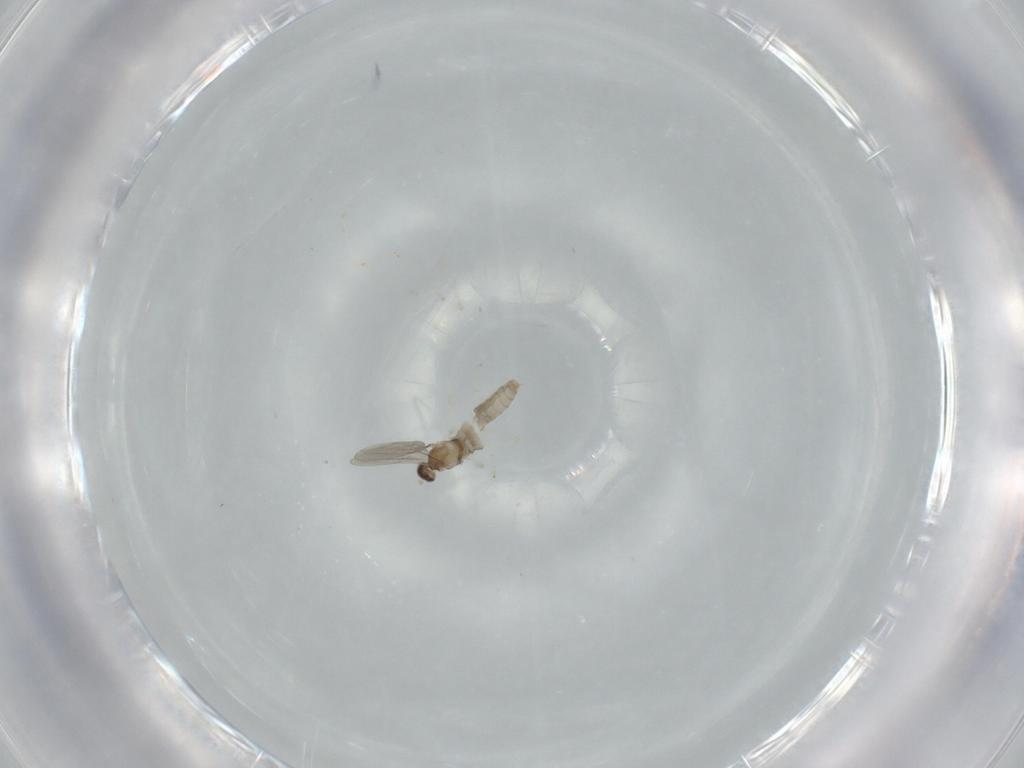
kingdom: Animalia
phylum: Arthropoda
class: Insecta
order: Diptera
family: Cecidomyiidae
